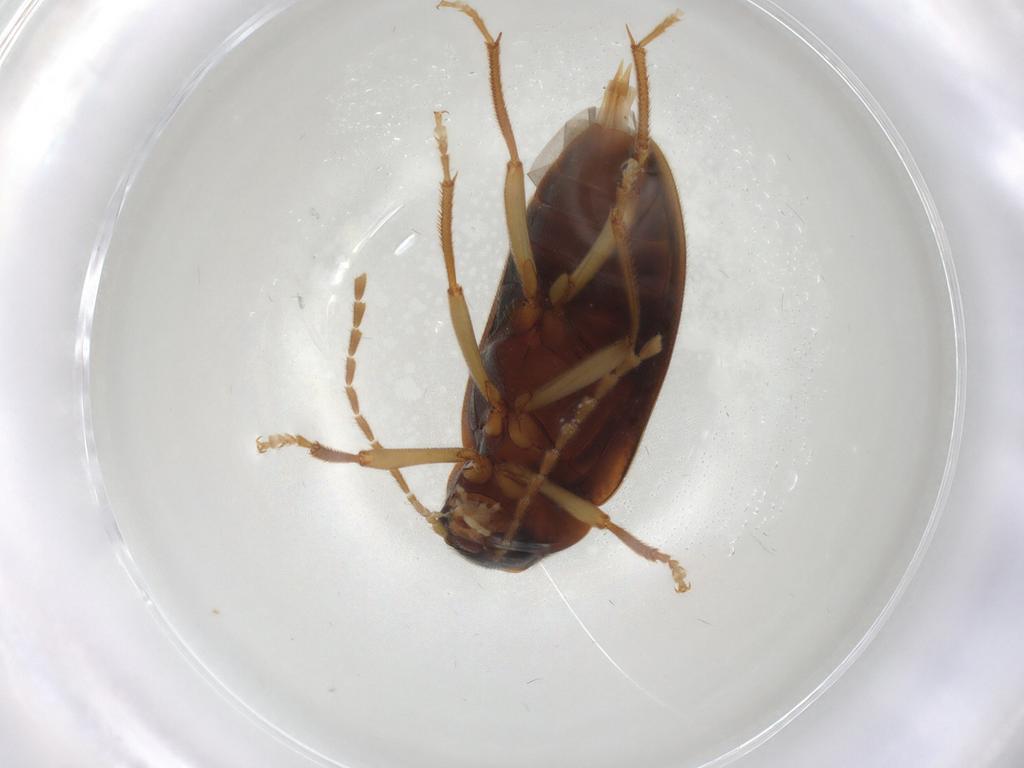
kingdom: Animalia
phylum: Arthropoda
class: Insecta
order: Coleoptera
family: Ptilodactylidae
